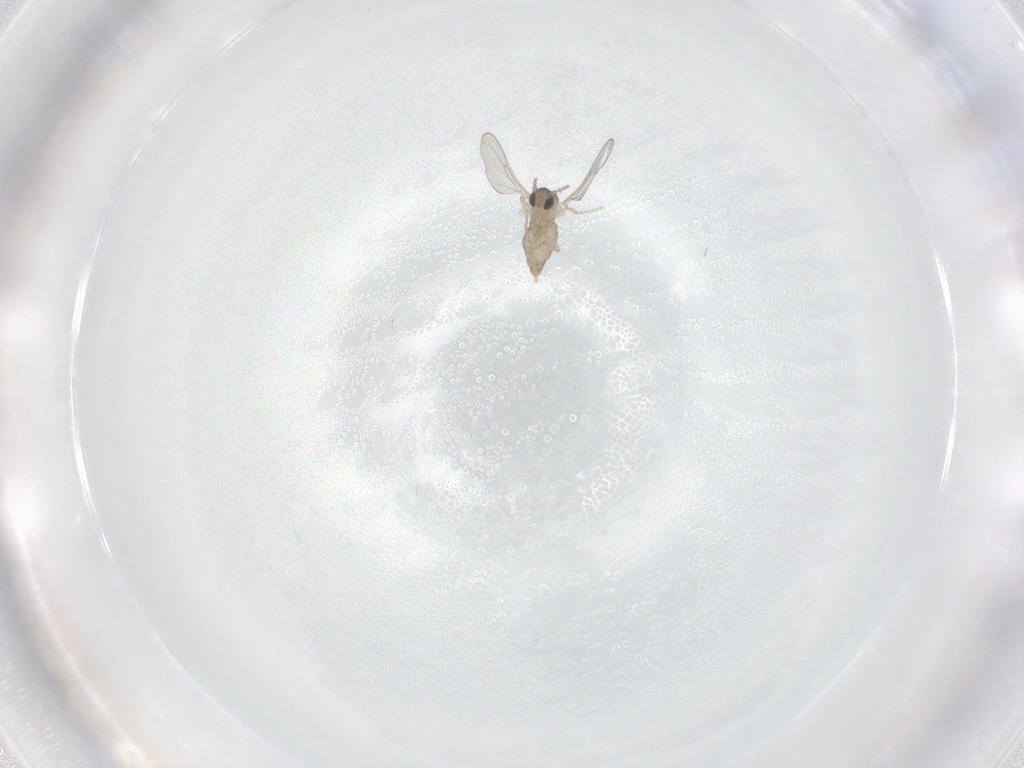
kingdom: Animalia
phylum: Arthropoda
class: Insecta
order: Diptera
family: Cecidomyiidae
